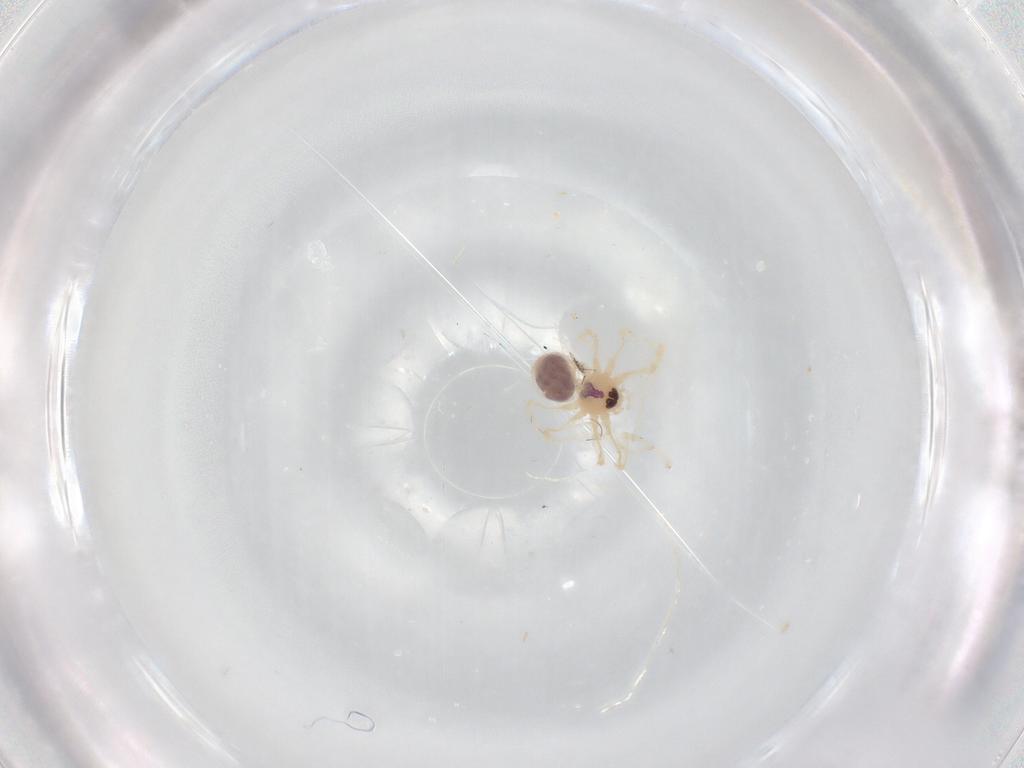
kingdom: Animalia
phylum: Arthropoda
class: Arachnida
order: Araneae
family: Pholcidae
